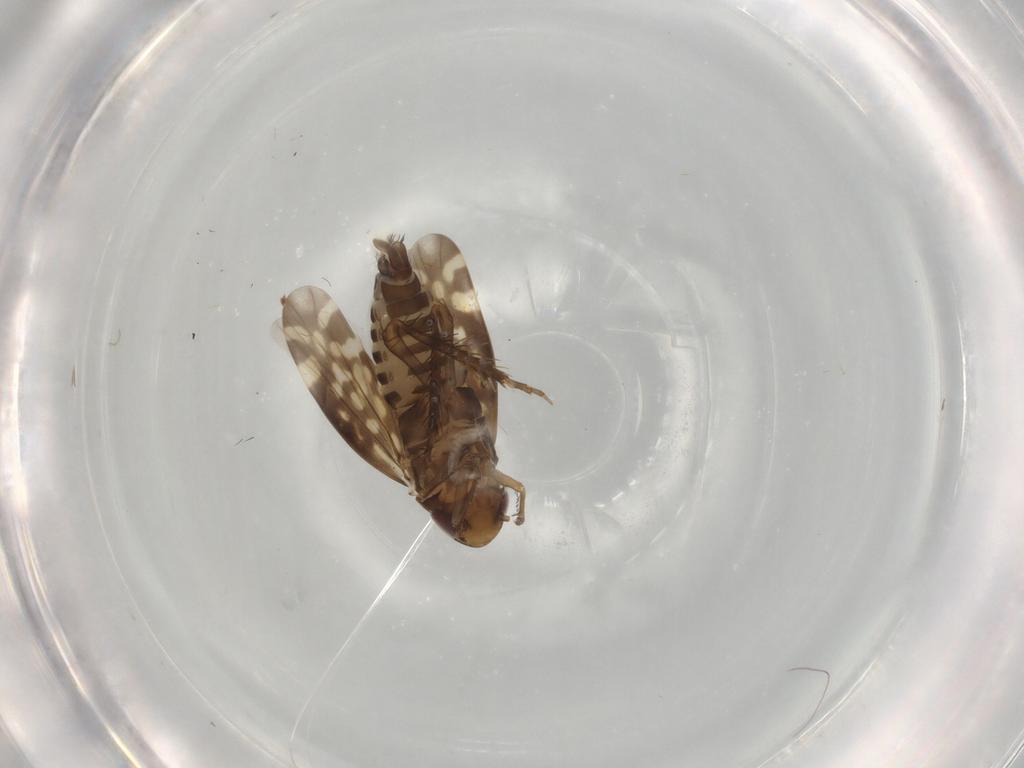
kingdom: Animalia
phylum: Arthropoda
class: Insecta
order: Hemiptera
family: Cicadellidae
